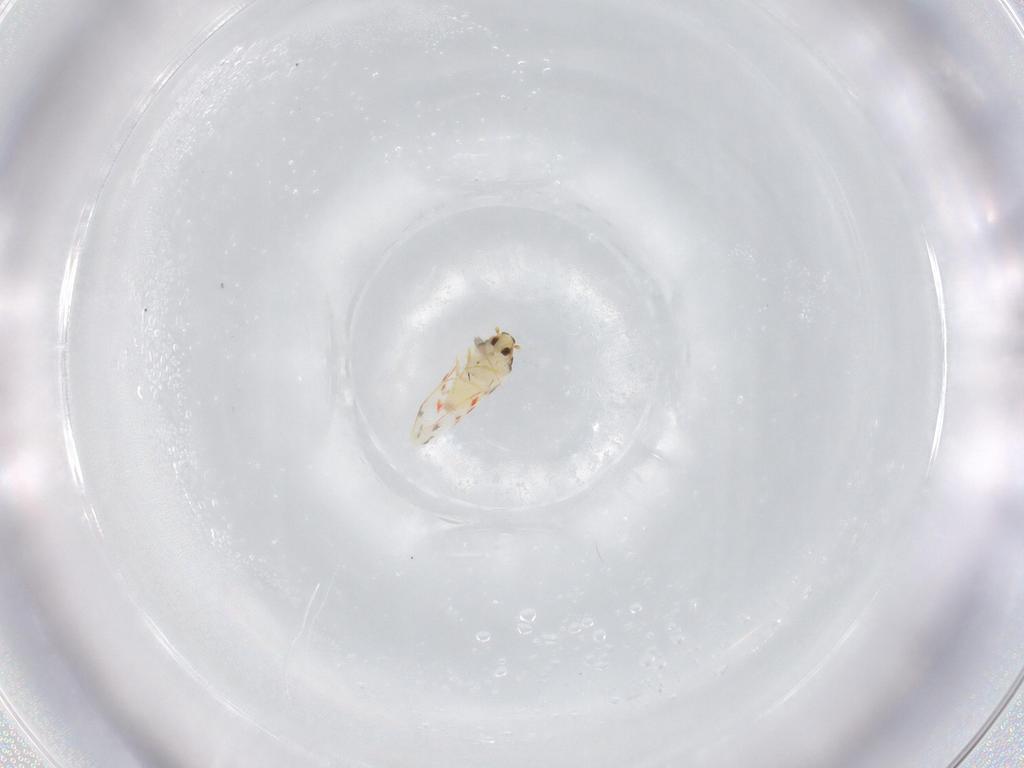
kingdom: Animalia
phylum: Arthropoda
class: Insecta
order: Hemiptera
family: Aleyrodidae
